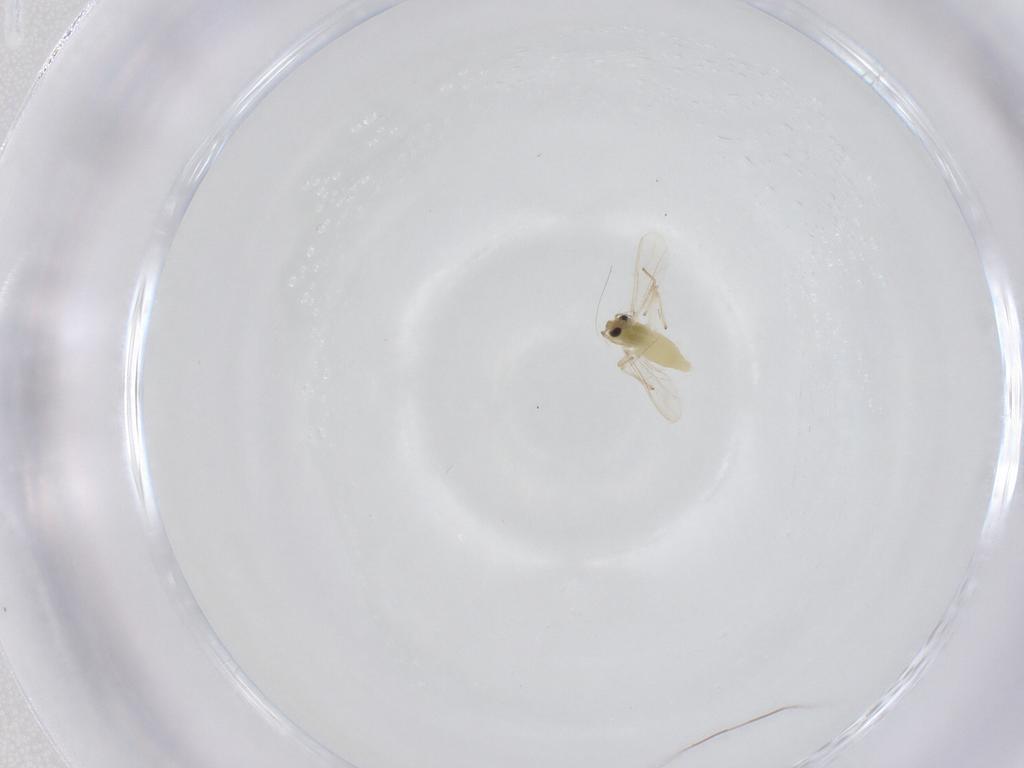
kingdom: Animalia
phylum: Arthropoda
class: Insecta
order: Diptera
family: Chironomidae
